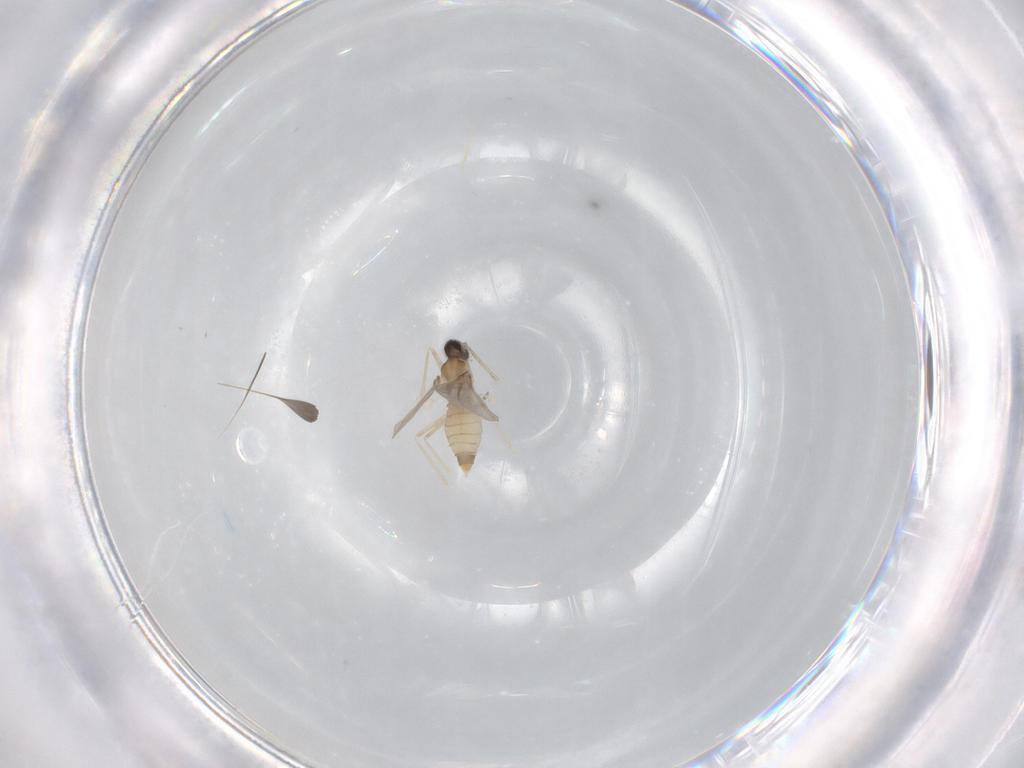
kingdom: Animalia
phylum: Arthropoda
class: Insecta
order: Diptera
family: Cecidomyiidae
